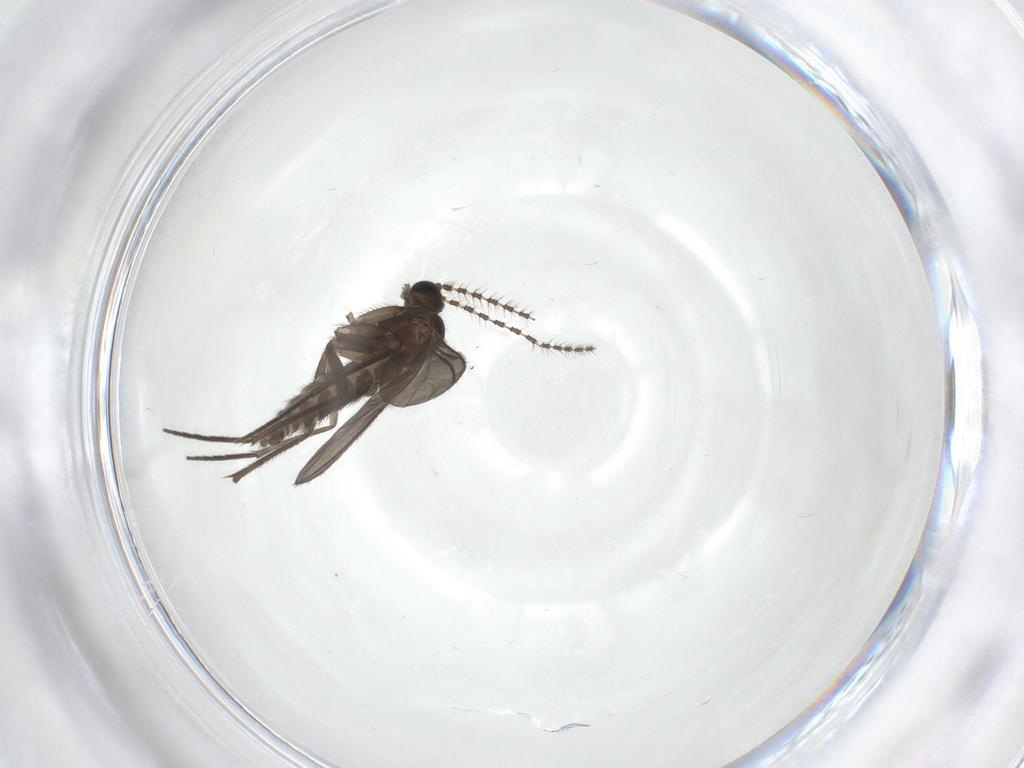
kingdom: Animalia
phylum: Arthropoda
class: Insecta
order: Diptera
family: Sciaridae
